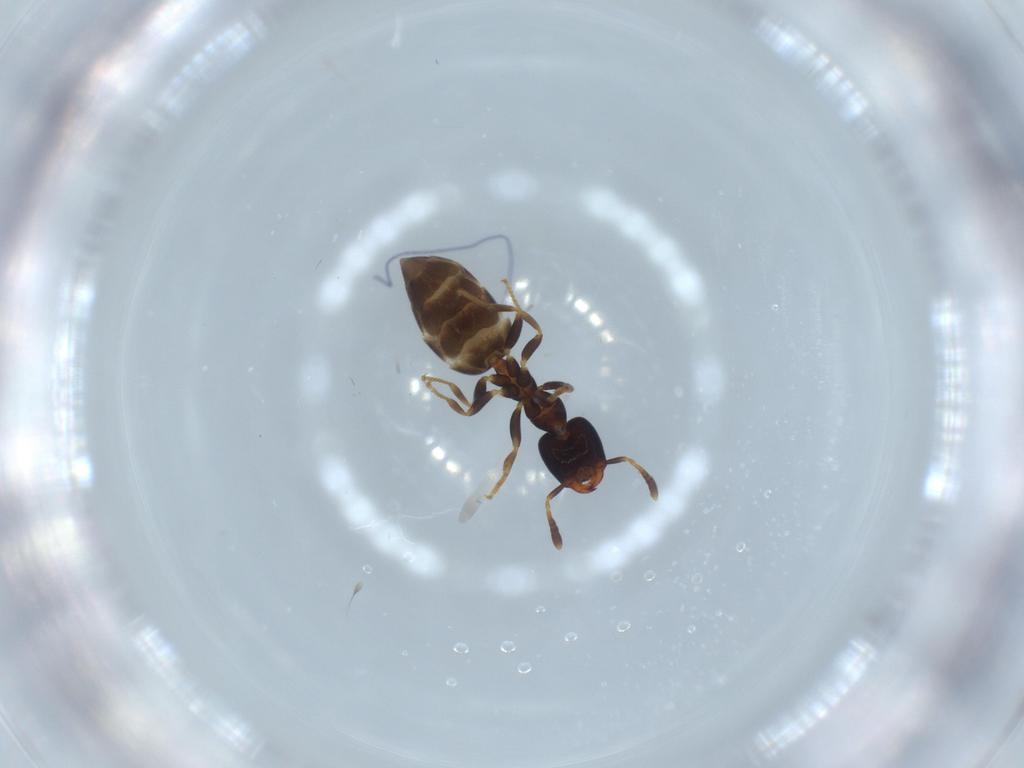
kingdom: Animalia
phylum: Arthropoda
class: Insecta
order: Hymenoptera
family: Formicidae
